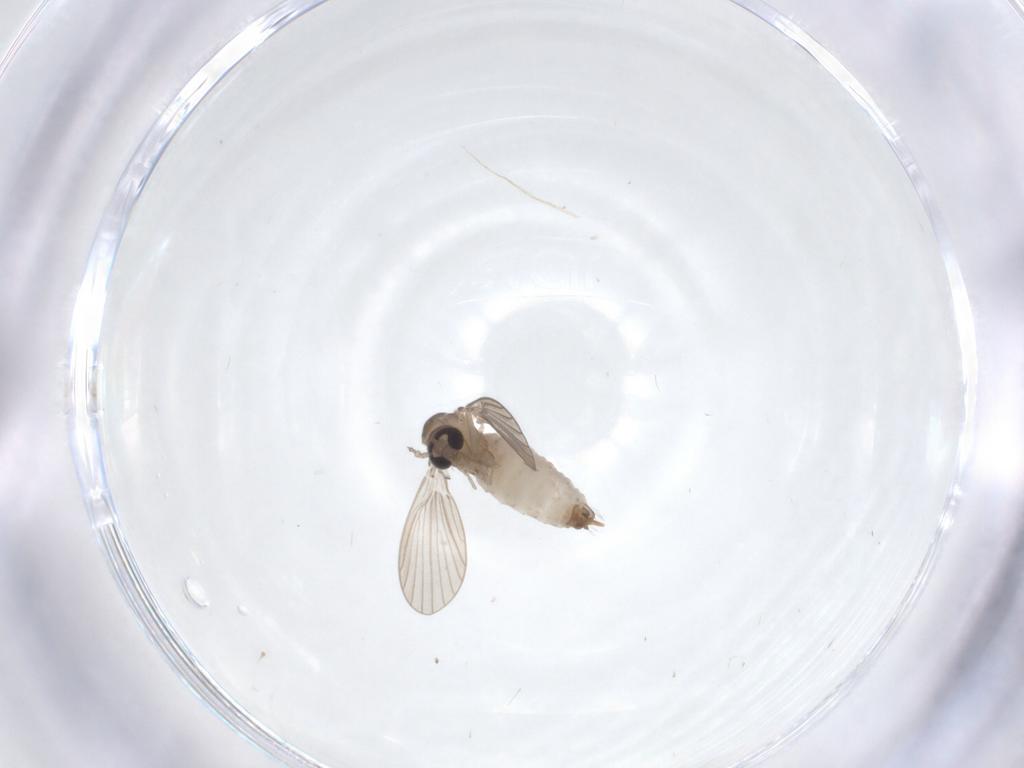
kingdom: Animalia
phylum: Arthropoda
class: Insecta
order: Diptera
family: Psychodidae
